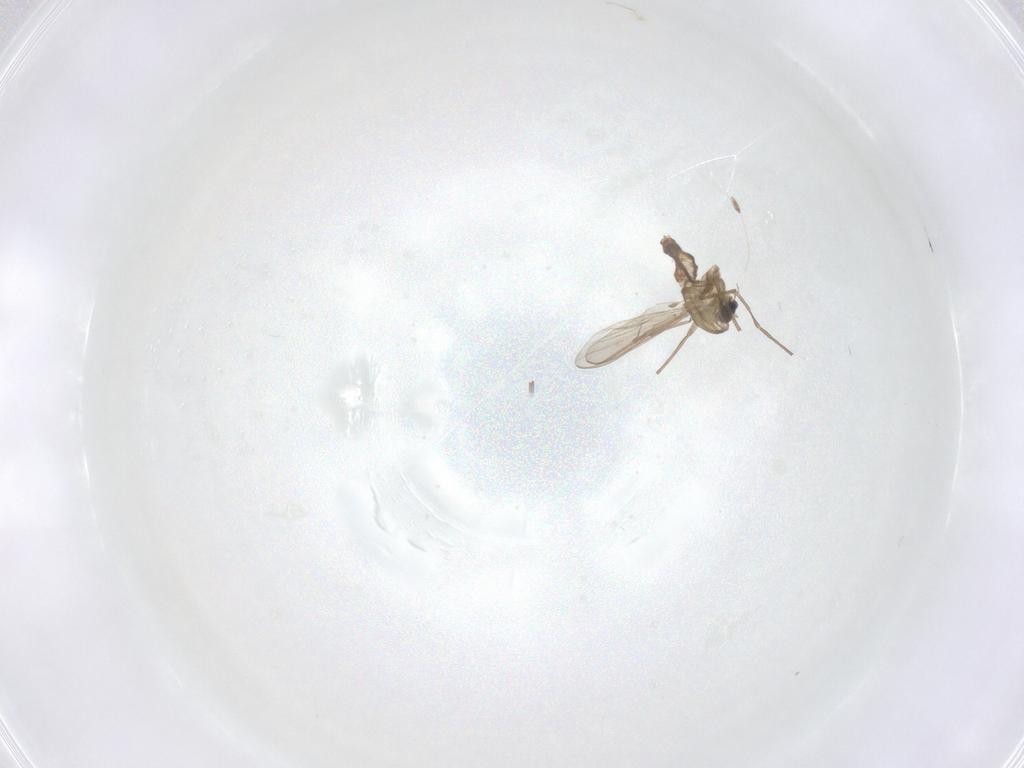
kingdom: Animalia
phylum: Arthropoda
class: Insecta
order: Diptera
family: Chironomidae
